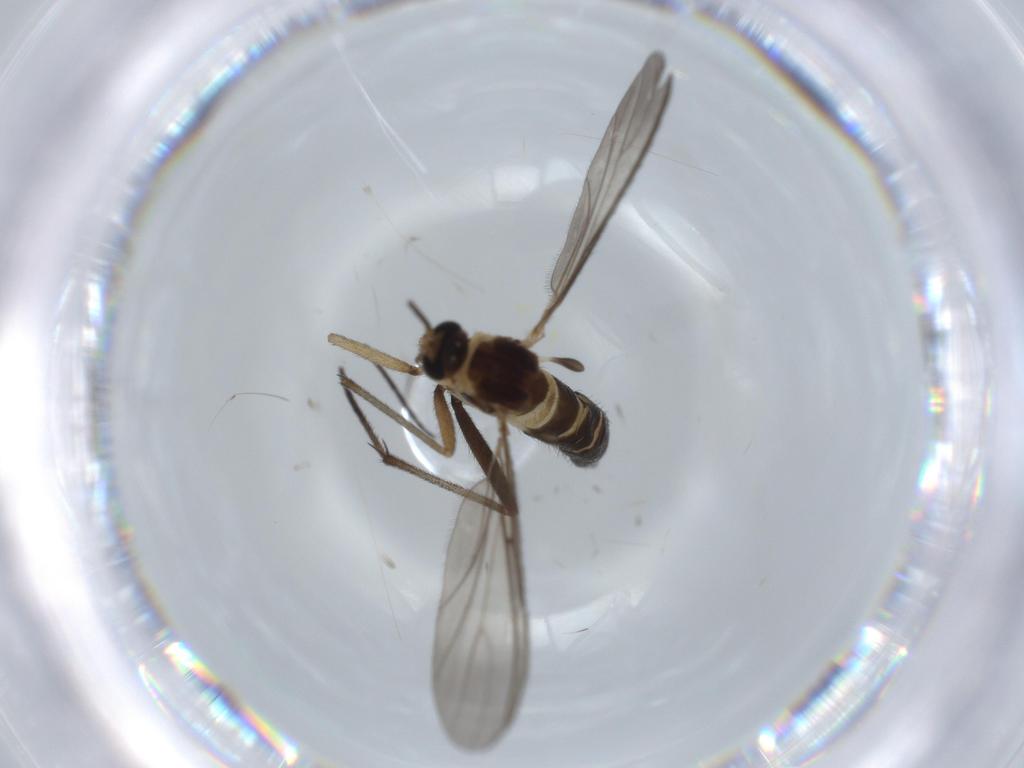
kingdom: Animalia
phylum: Arthropoda
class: Insecta
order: Diptera
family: Sciaridae
